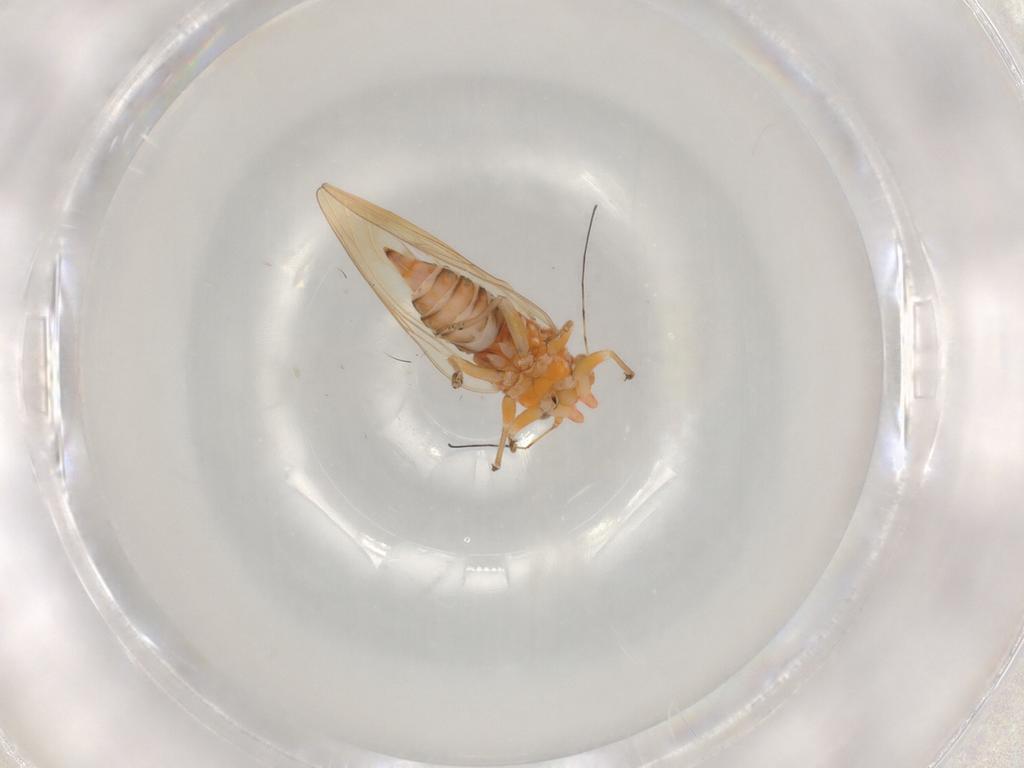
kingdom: Animalia
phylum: Arthropoda
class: Insecta
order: Hemiptera
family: Psyllidae
